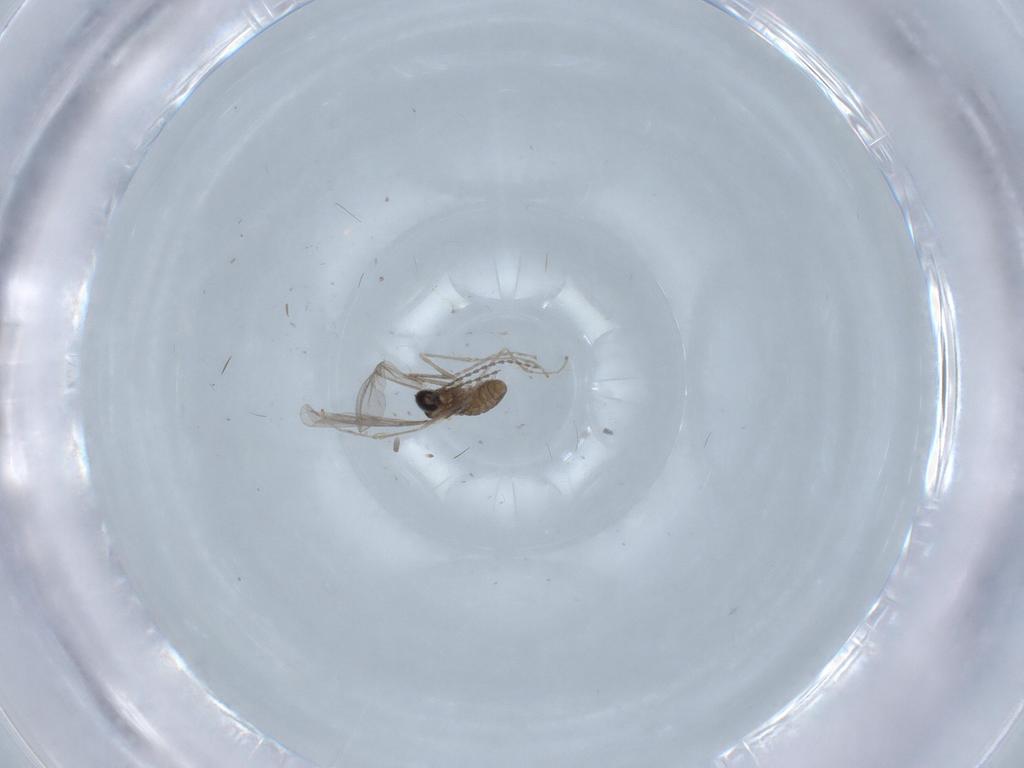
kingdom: Animalia
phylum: Arthropoda
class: Insecta
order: Diptera
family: Cecidomyiidae
